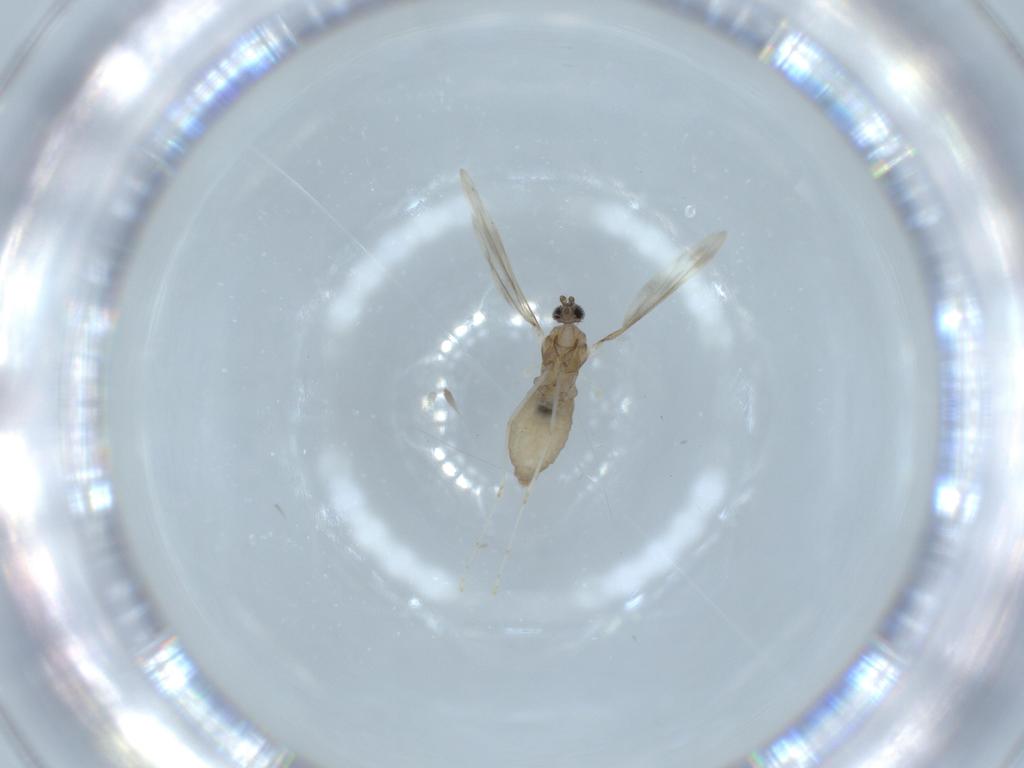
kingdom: Animalia
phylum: Arthropoda
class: Insecta
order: Diptera
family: Cecidomyiidae
